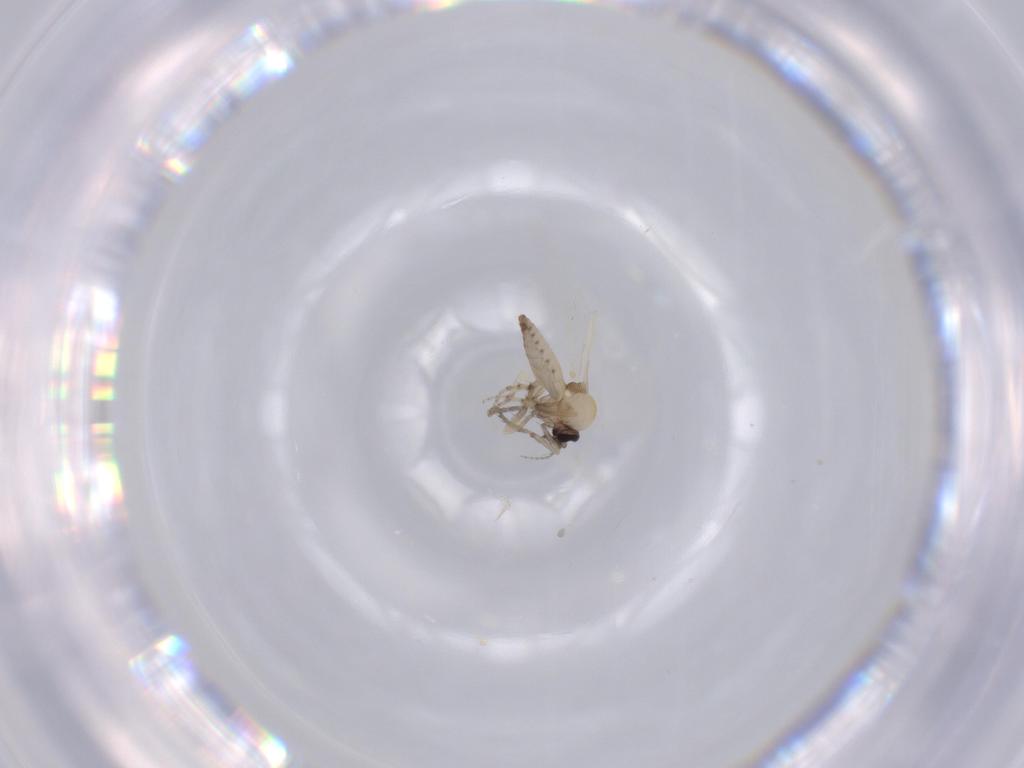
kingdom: Animalia
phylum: Arthropoda
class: Insecta
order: Diptera
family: Ceratopogonidae
